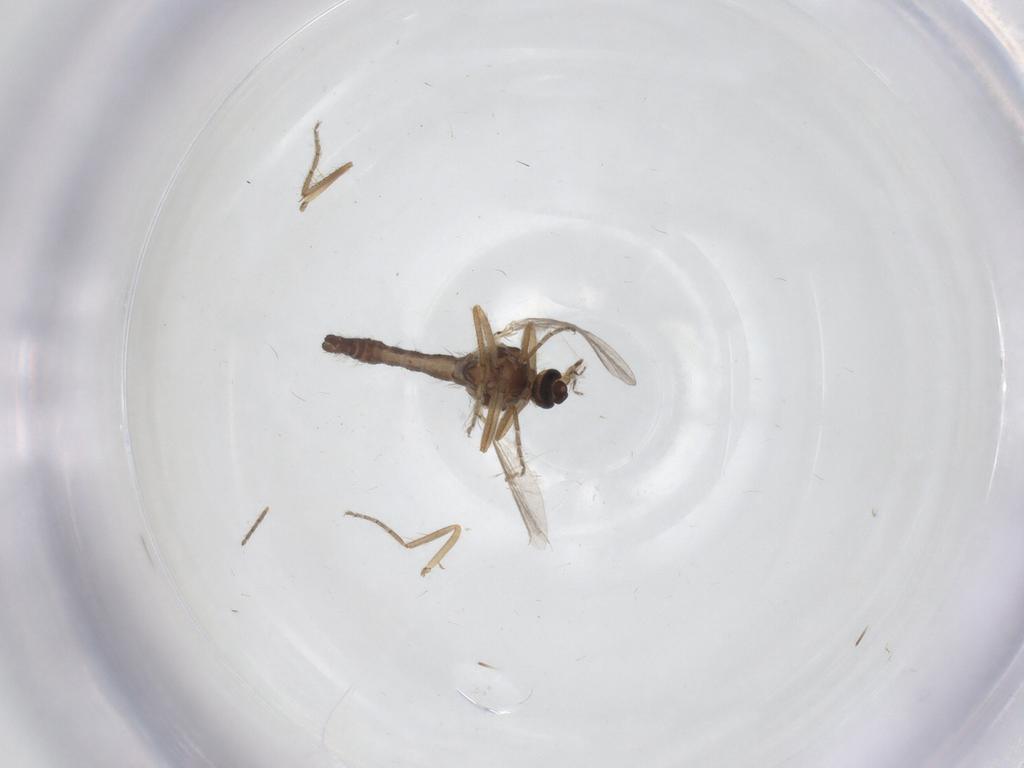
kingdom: Animalia
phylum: Arthropoda
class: Insecta
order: Diptera
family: Ceratopogonidae
